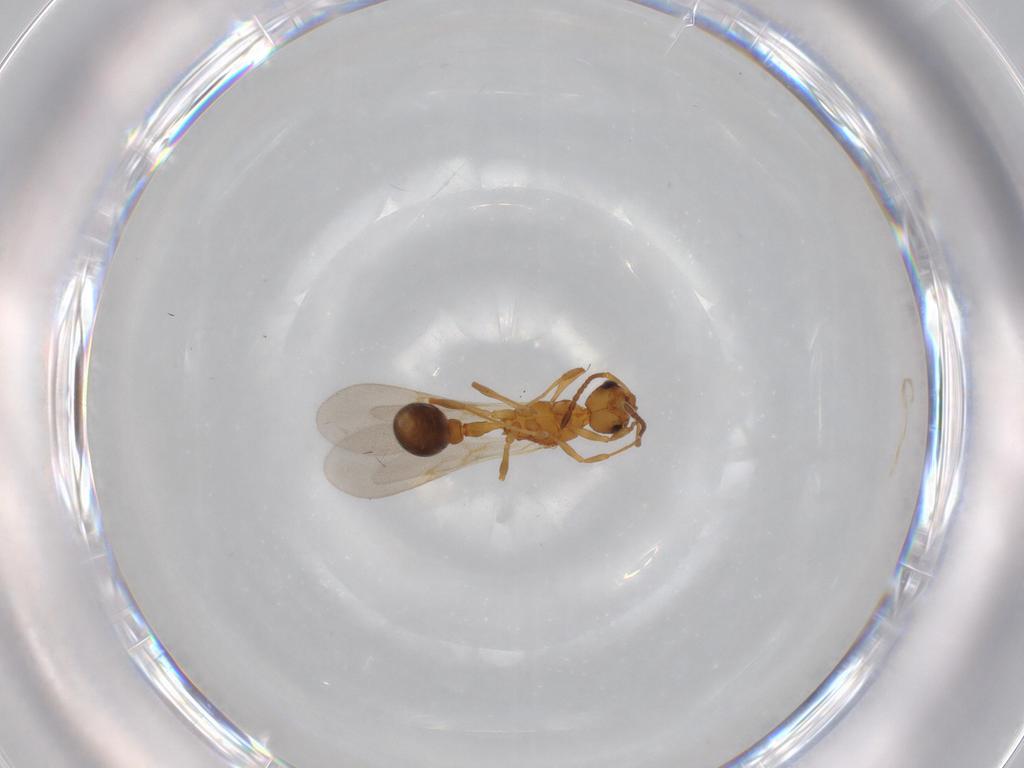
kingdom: Animalia
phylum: Arthropoda
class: Insecta
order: Hymenoptera
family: Formicidae
